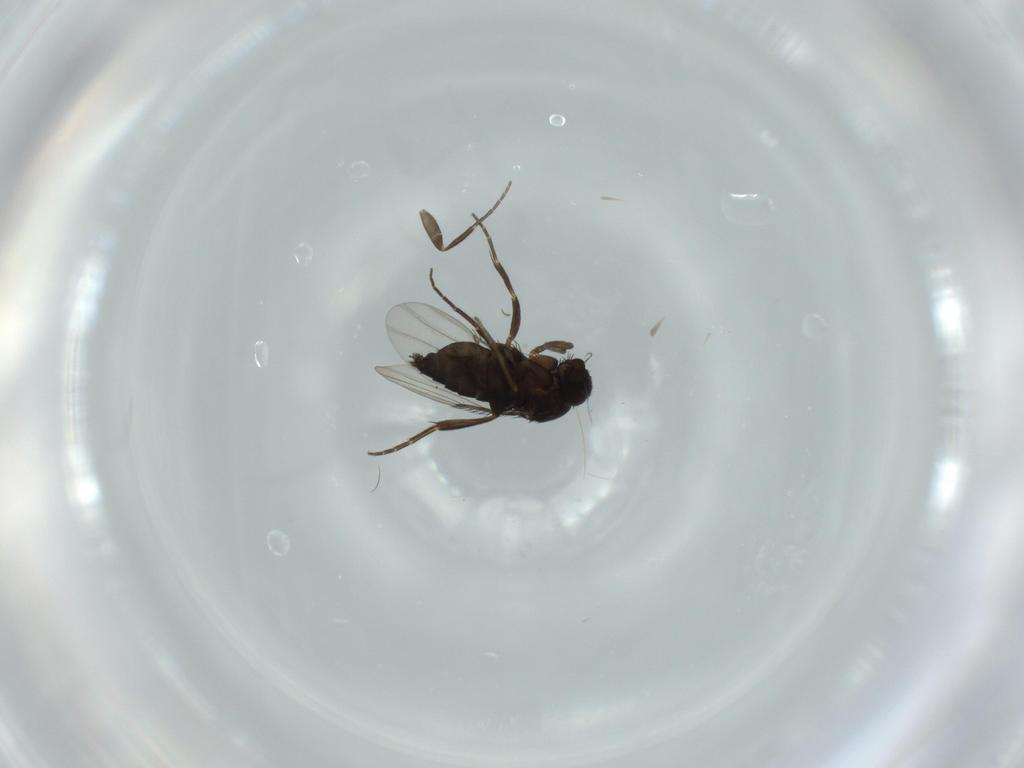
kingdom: Animalia
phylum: Arthropoda
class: Insecta
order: Diptera
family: Phoridae
